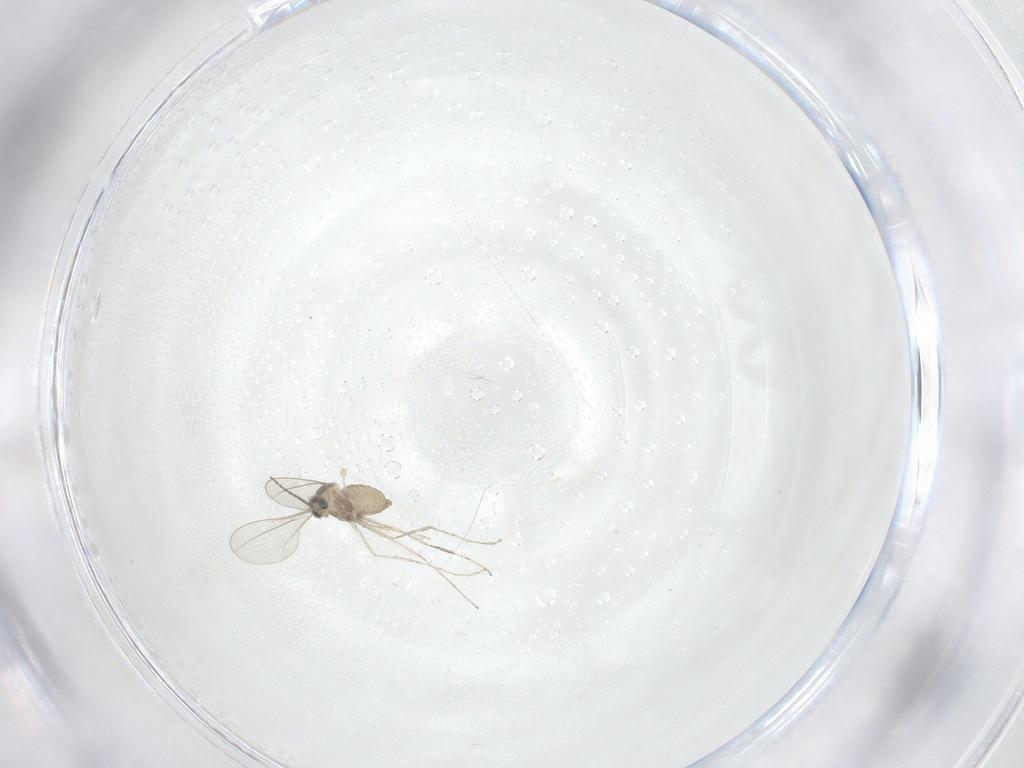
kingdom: Animalia
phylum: Arthropoda
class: Insecta
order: Diptera
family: Psychodidae
